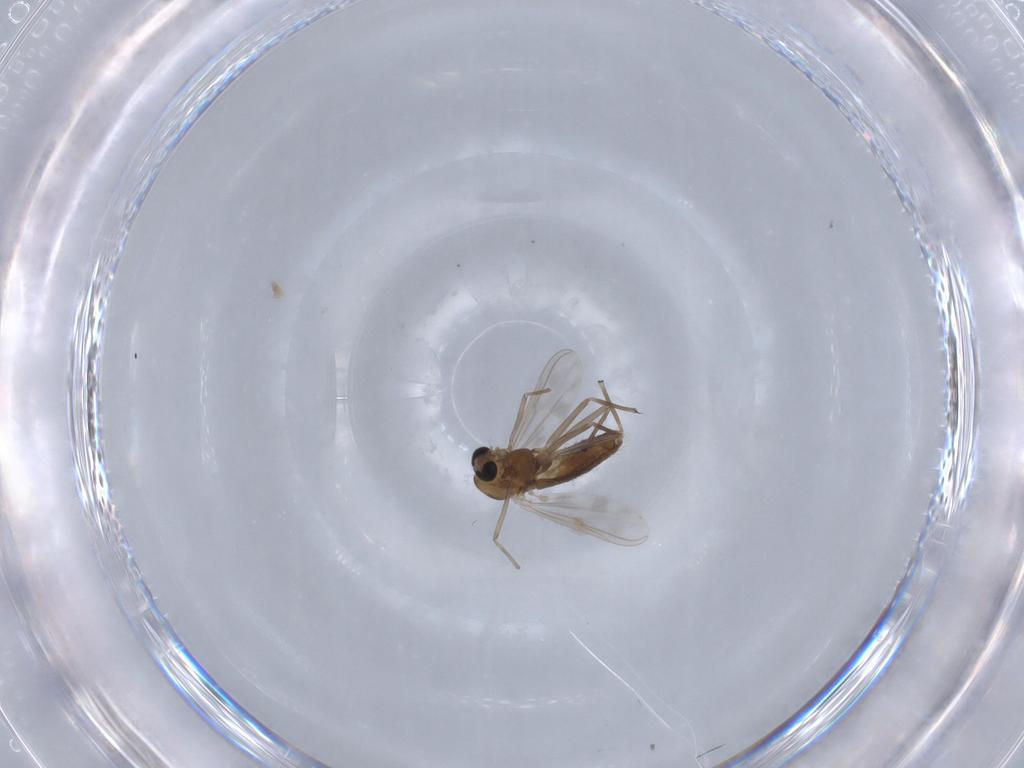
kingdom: Animalia
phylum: Arthropoda
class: Insecta
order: Diptera
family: Chironomidae
